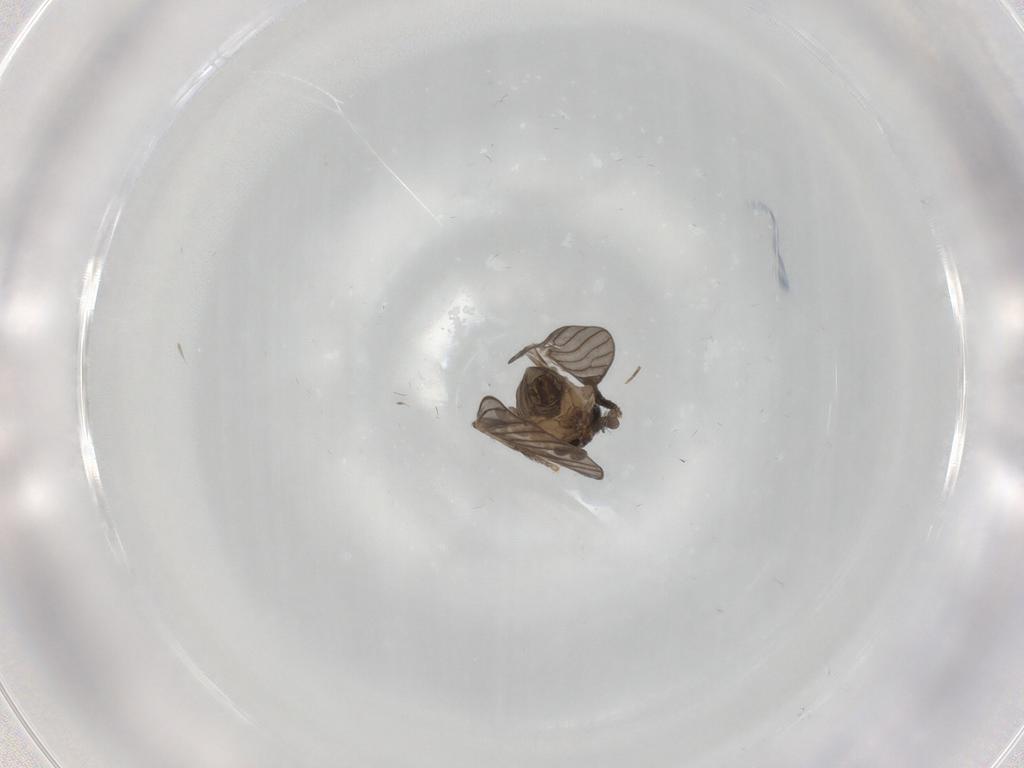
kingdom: Animalia
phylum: Arthropoda
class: Insecta
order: Diptera
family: Psychodidae
